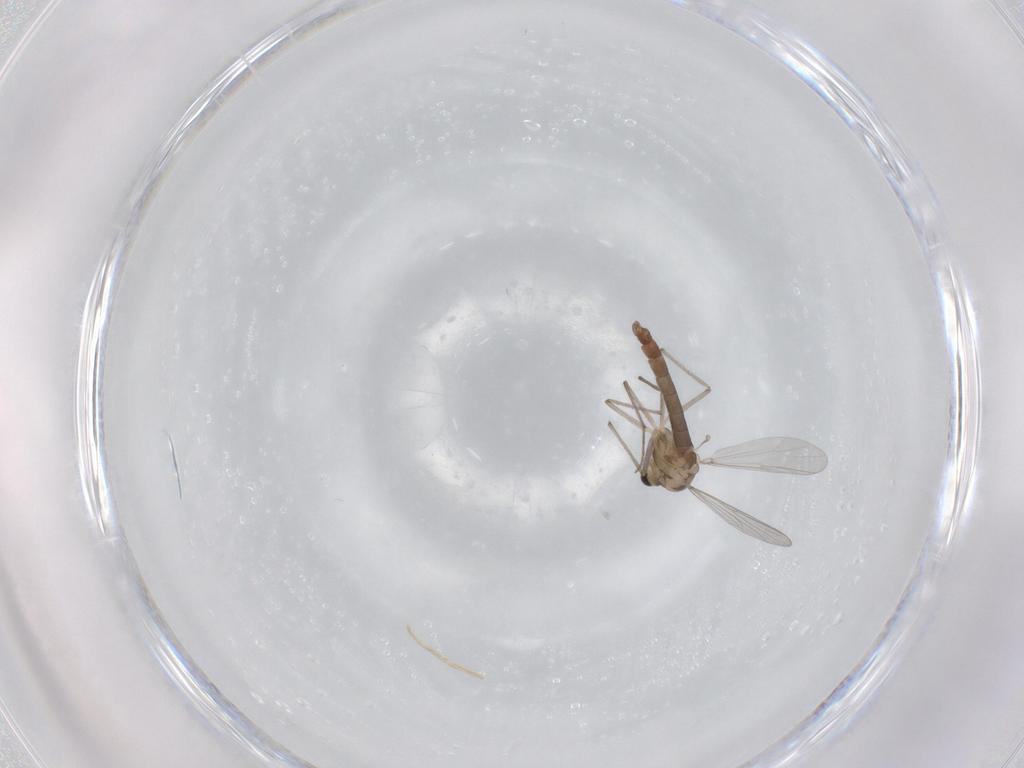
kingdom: Animalia
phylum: Arthropoda
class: Insecta
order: Diptera
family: Chironomidae
